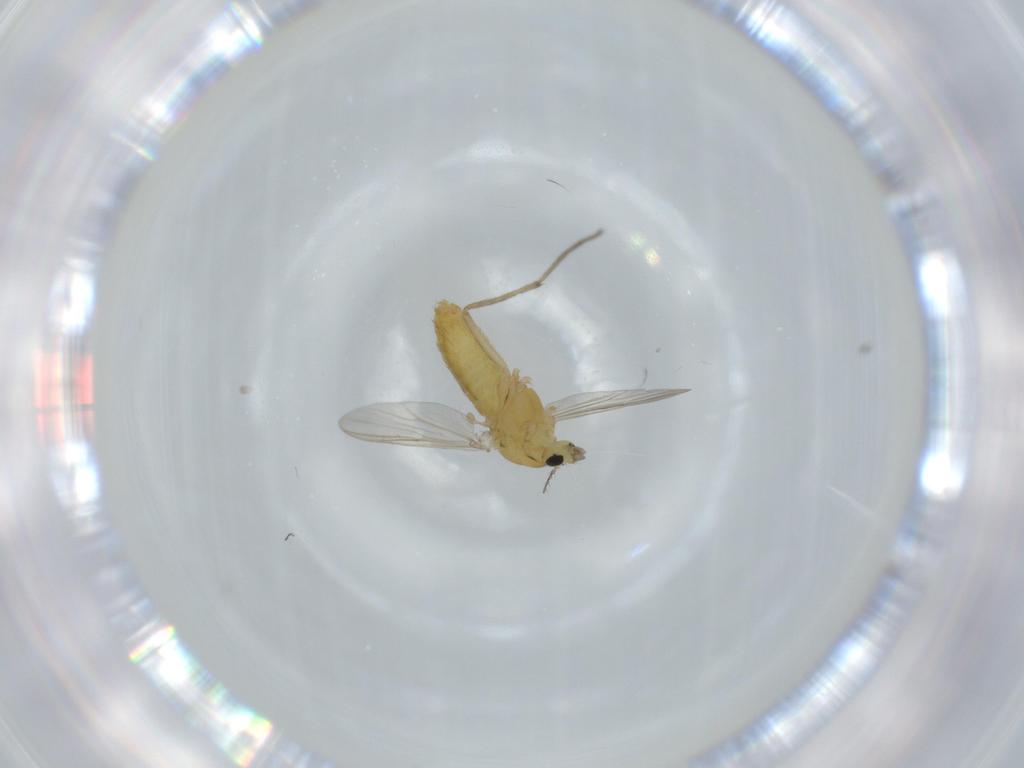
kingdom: Animalia
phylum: Arthropoda
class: Insecta
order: Diptera
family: Chironomidae
